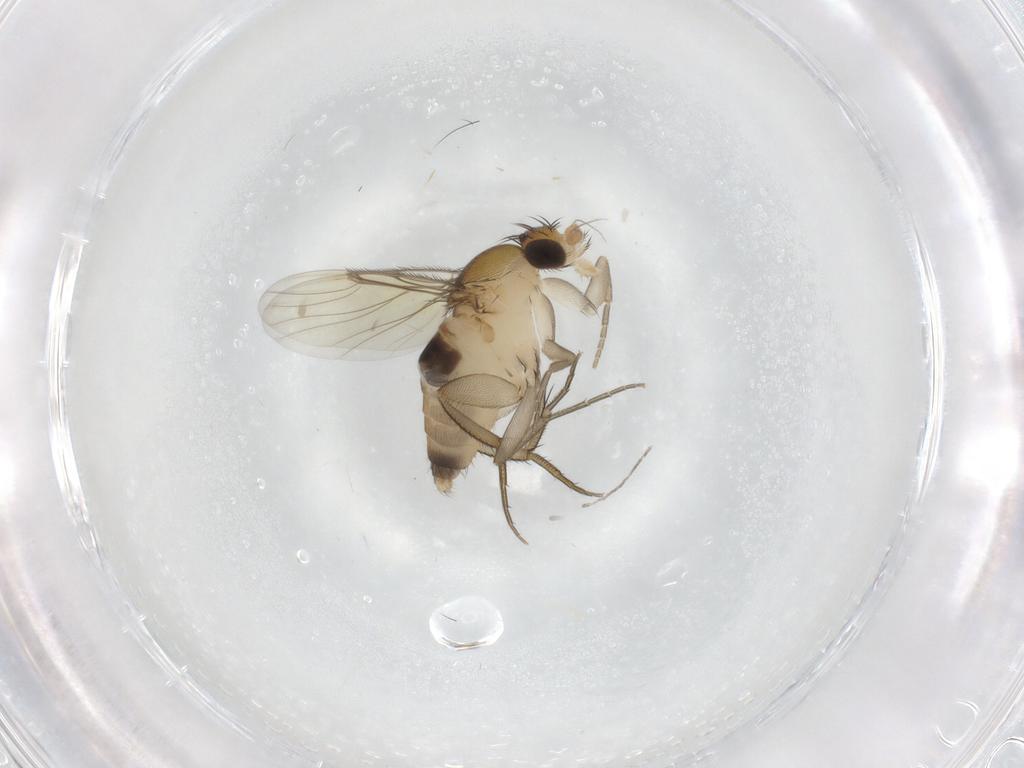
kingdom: Animalia
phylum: Arthropoda
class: Insecta
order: Diptera
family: Phoridae
